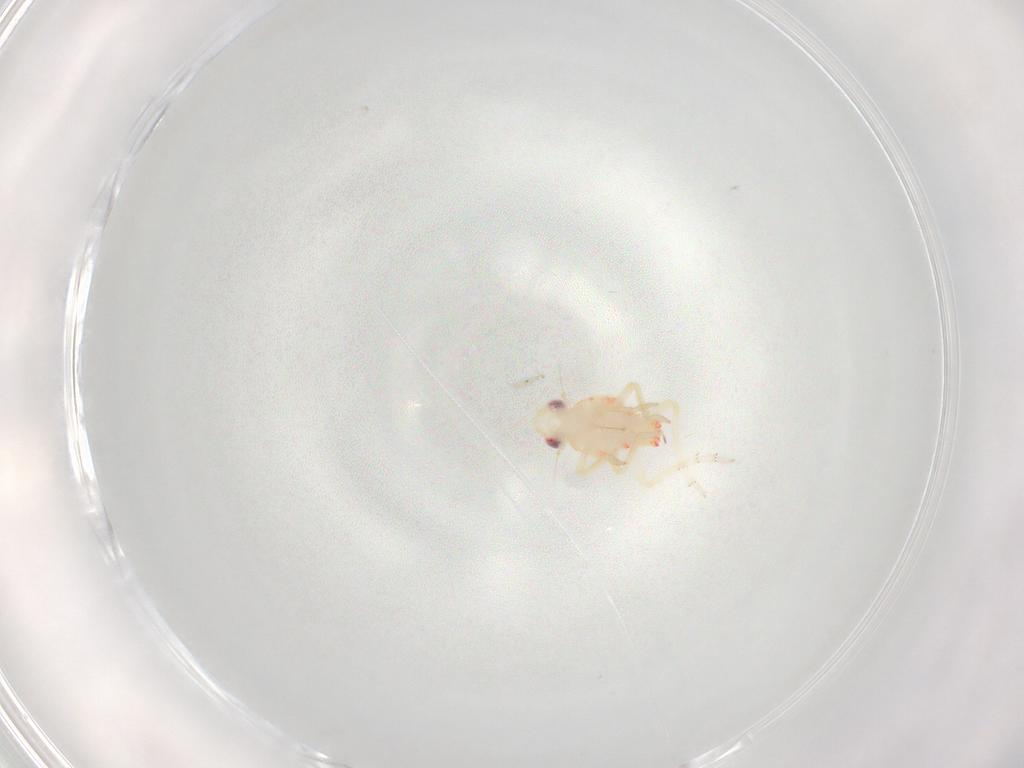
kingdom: Animalia
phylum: Arthropoda
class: Insecta
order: Hemiptera
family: Tropiduchidae
